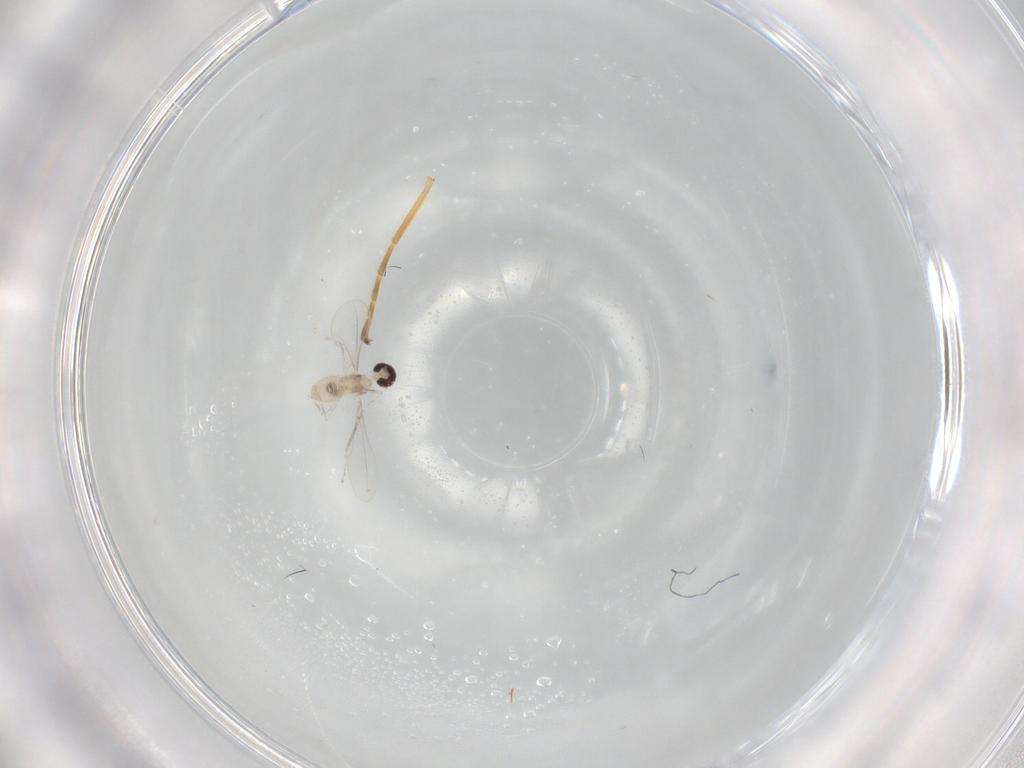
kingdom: Animalia
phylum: Arthropoda
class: Insecta
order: Diptera
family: Cecidomyiidae
